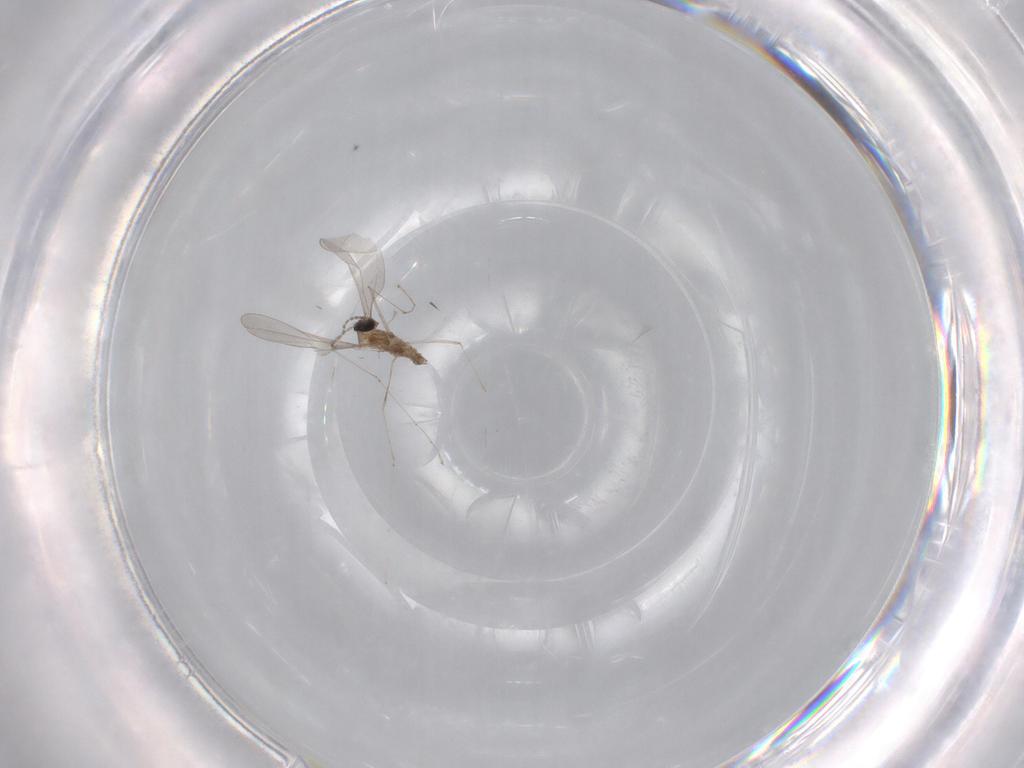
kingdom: Animalia
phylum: Arthropoda
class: Insecta
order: Diptera
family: Cecidomyiidae
